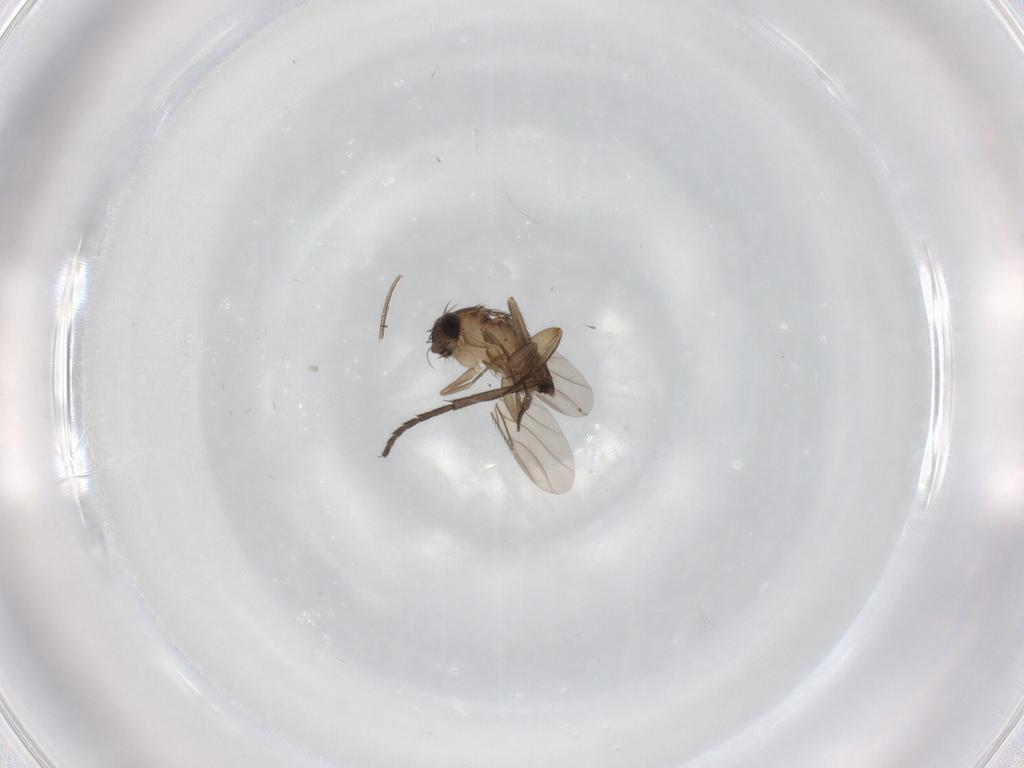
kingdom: Animalia
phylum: Arthropoda
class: Insecta
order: Diptera
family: Phoridae
